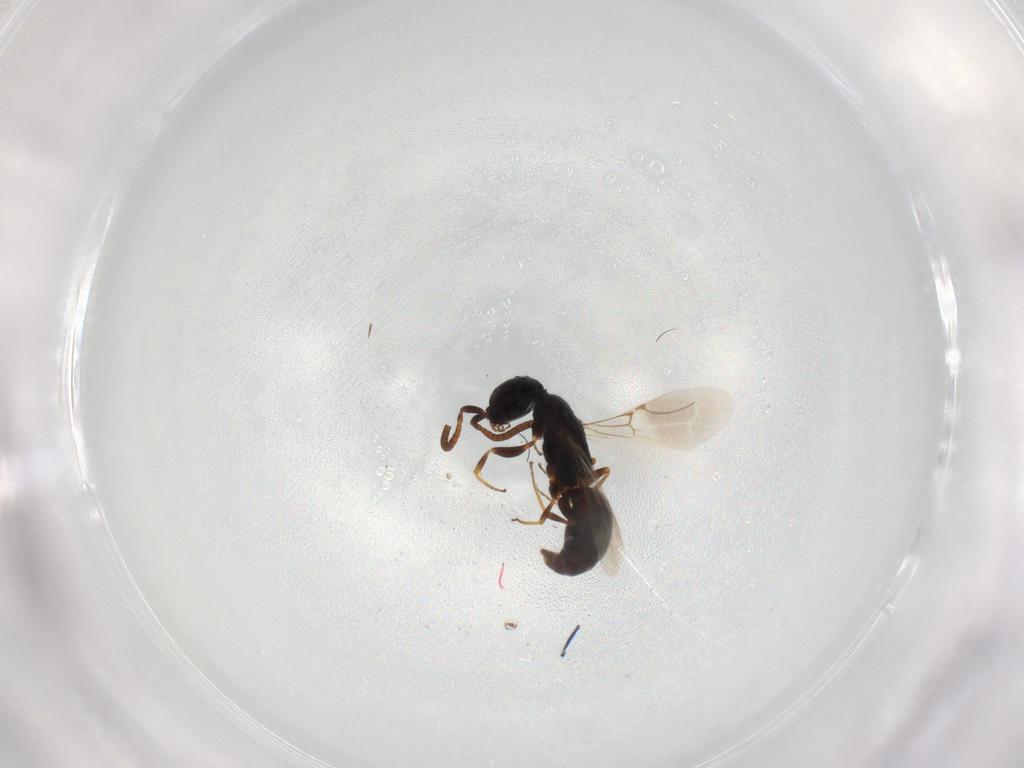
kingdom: Animalia
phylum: Arthropoda
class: Insecta
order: Hymenoptera
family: Bethylidae
